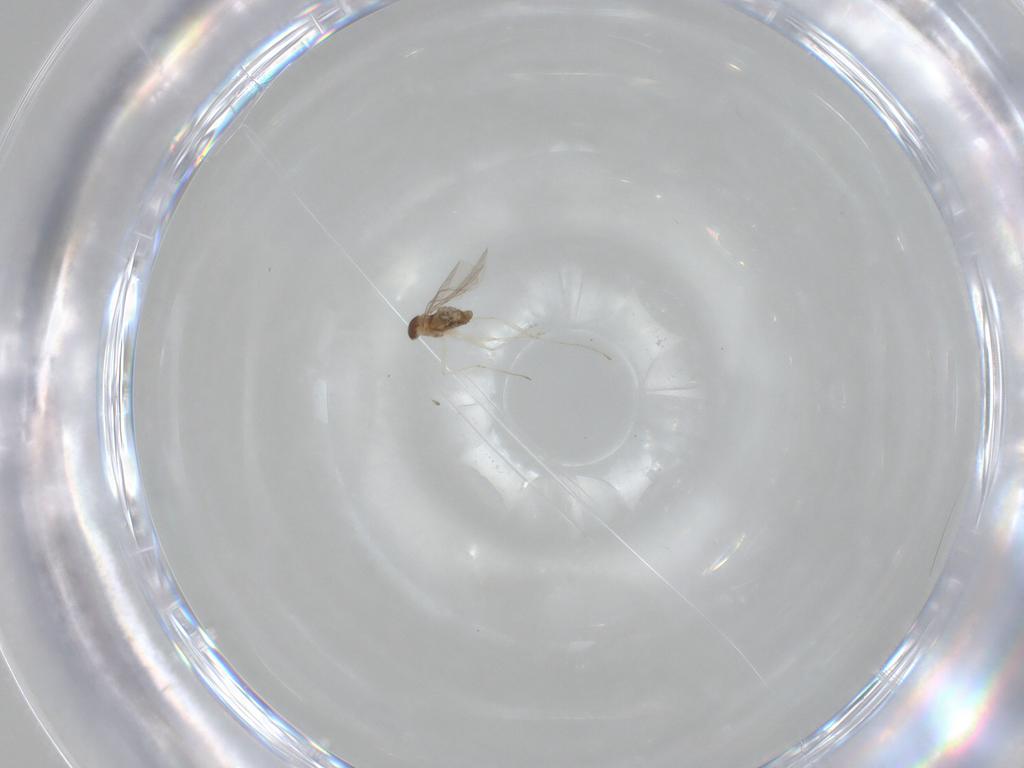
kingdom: Animalia
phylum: Arthropoda
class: Insecta
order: Diptera
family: Cecidomyiidae
